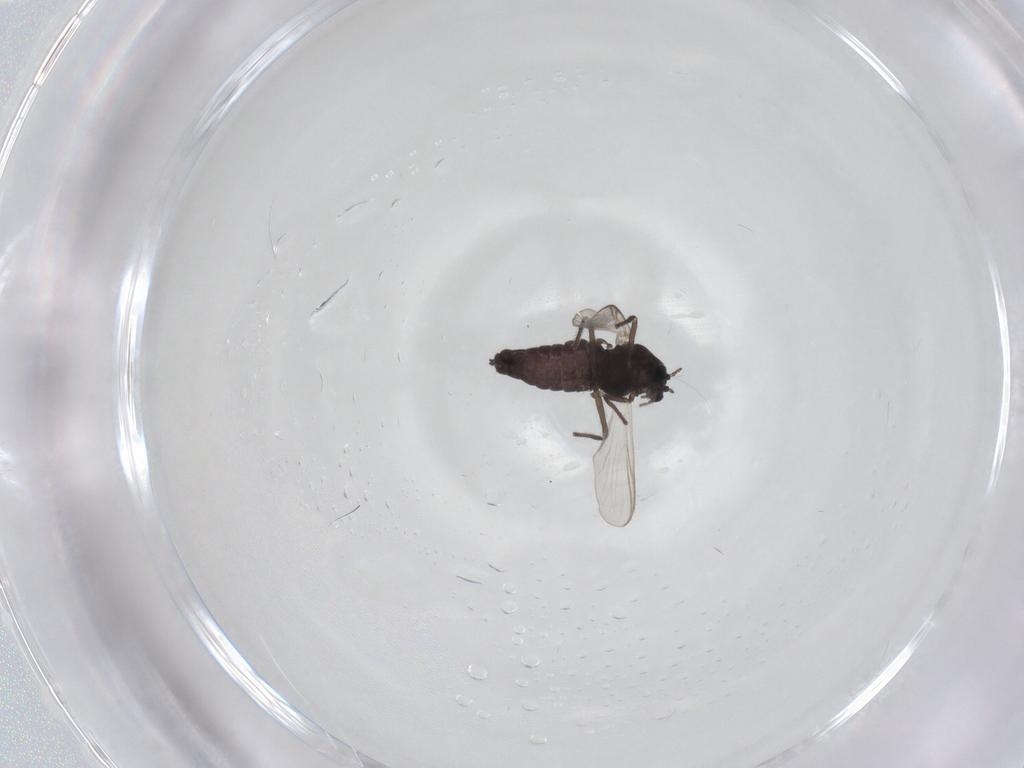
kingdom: Animalia
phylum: Arthropoda
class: Insecta
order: Diptera
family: Chironomidae
